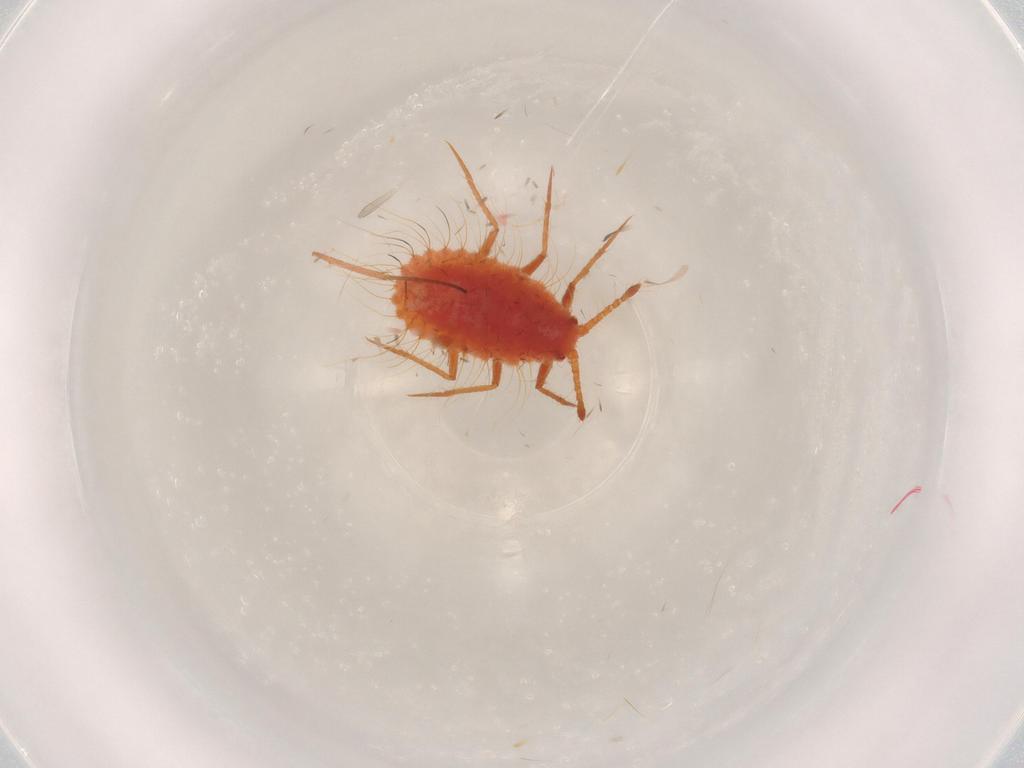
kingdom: Animalia
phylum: Arthropoda
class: Insecta
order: Hemiptera
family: Monophlebidae
